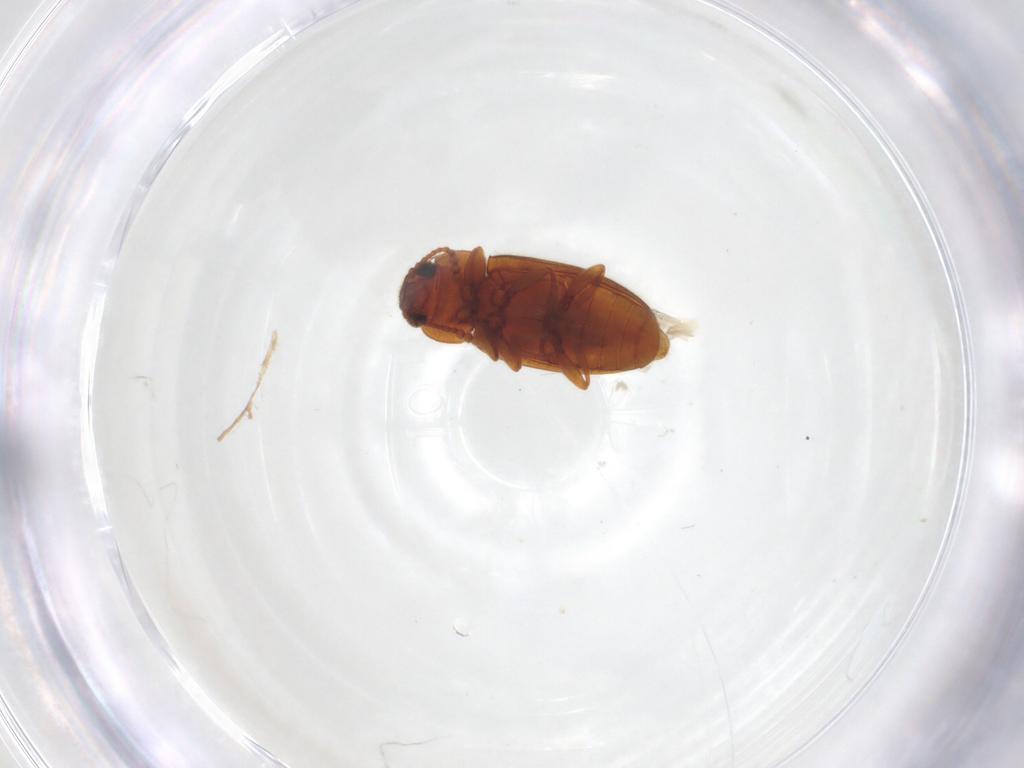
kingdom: Animalia
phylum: Arthropoda
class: Insecta
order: Coleoptera
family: Erotylidae
